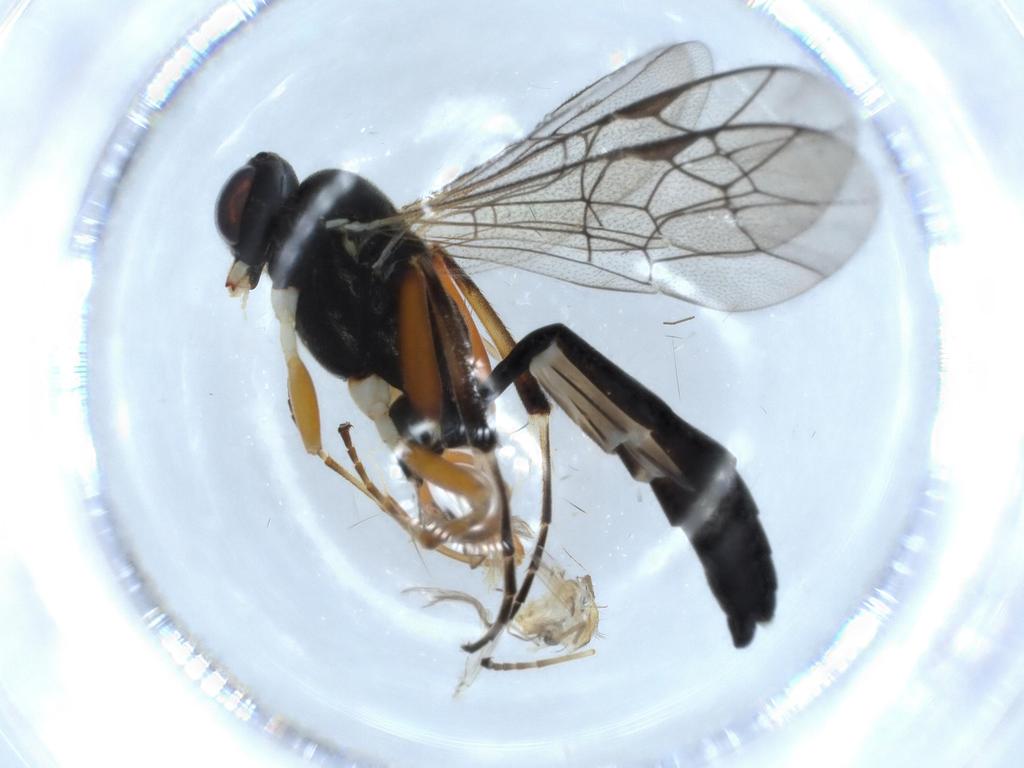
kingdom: Animalia
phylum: Arthropoda
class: Insecta
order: Hymenoptera
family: Ichneumonidae
